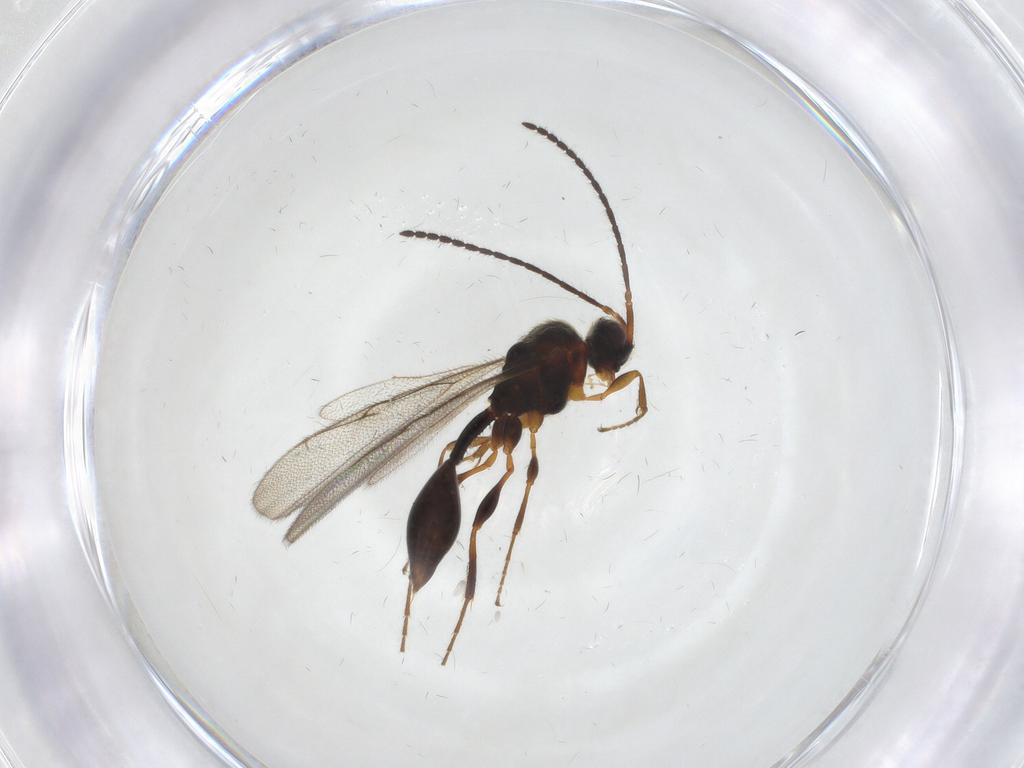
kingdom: Animalia
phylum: Arthropoda
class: Insecta
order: Hymenoptera
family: Diapriidae
